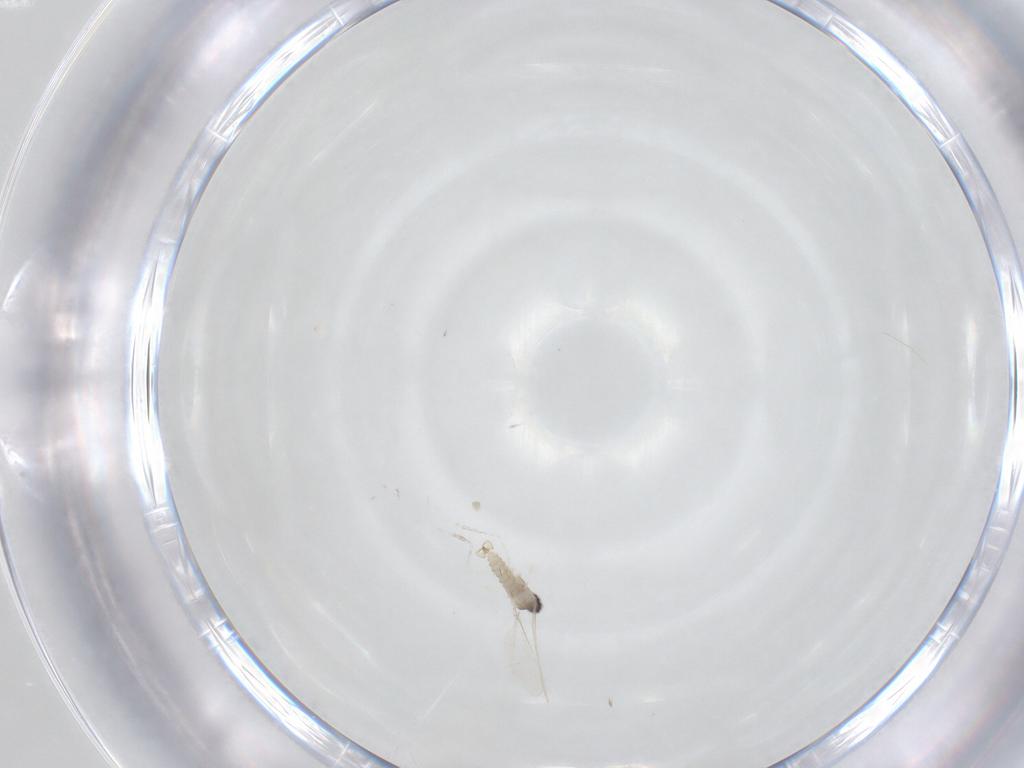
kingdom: Animalia
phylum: Arthropoda
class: Insecta
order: Diptera
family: Cecidomyiidae
